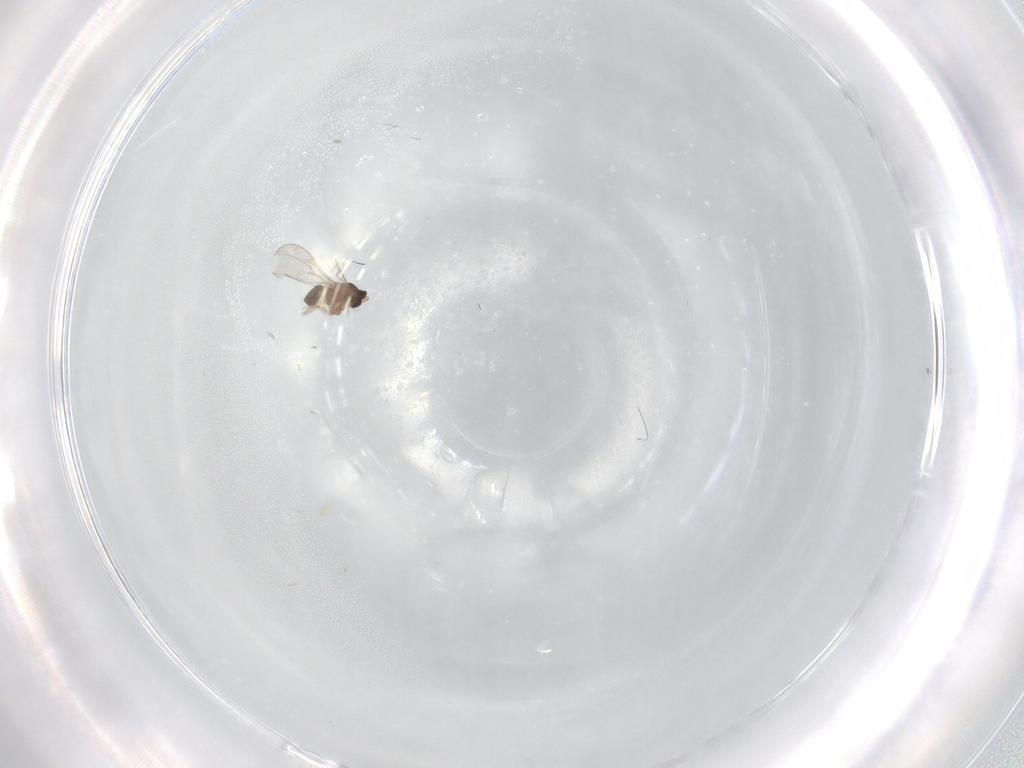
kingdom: Animalia
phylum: Arthropoda
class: Insecta
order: Diptera
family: Cecidomyiidae
